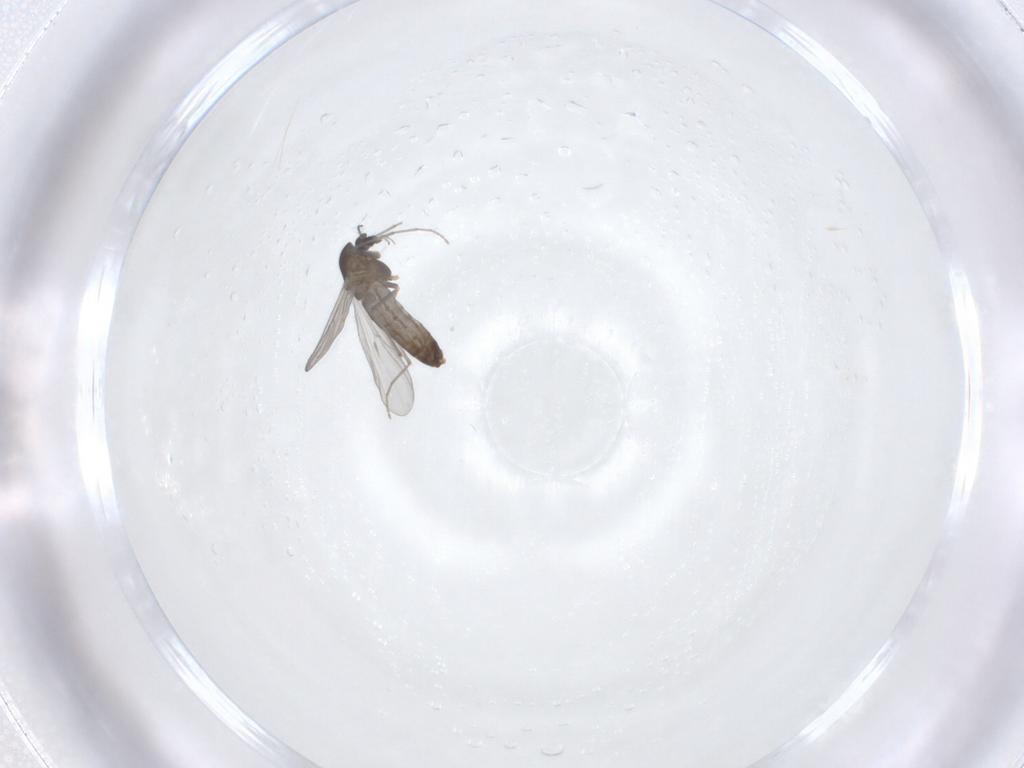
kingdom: Animalia
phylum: Arthropoda
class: Insecta
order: Diptera
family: Chironomidae
